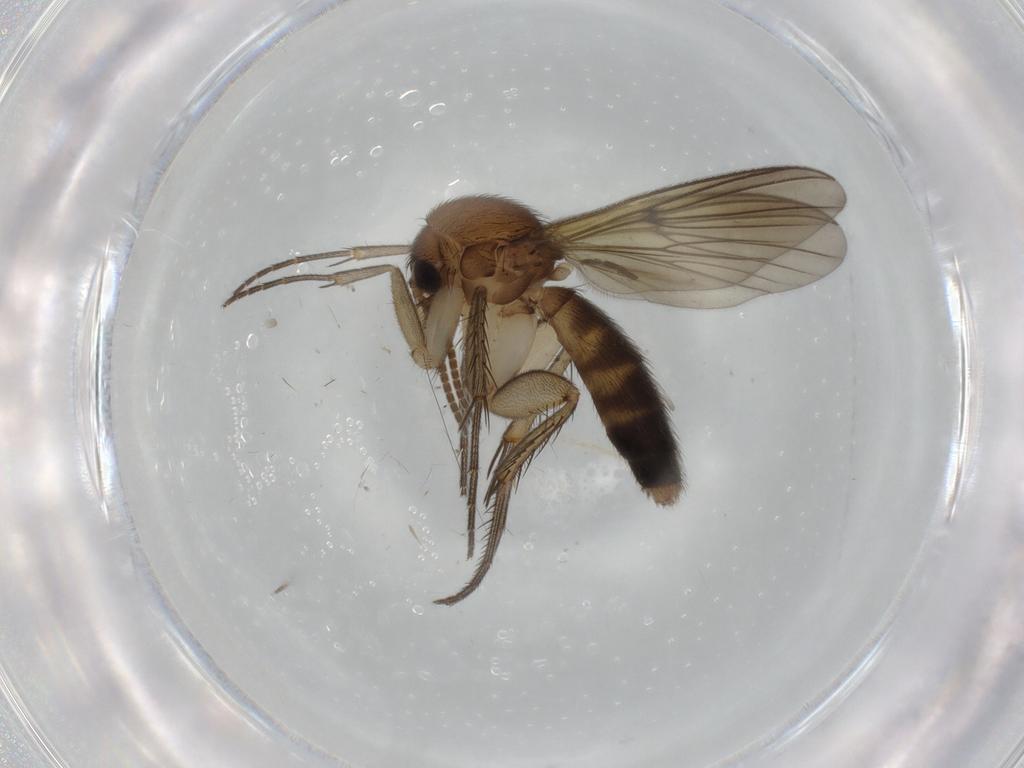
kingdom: Animalia
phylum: Arthropoda
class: Insecta
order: Diptera
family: Mycetophilidae
